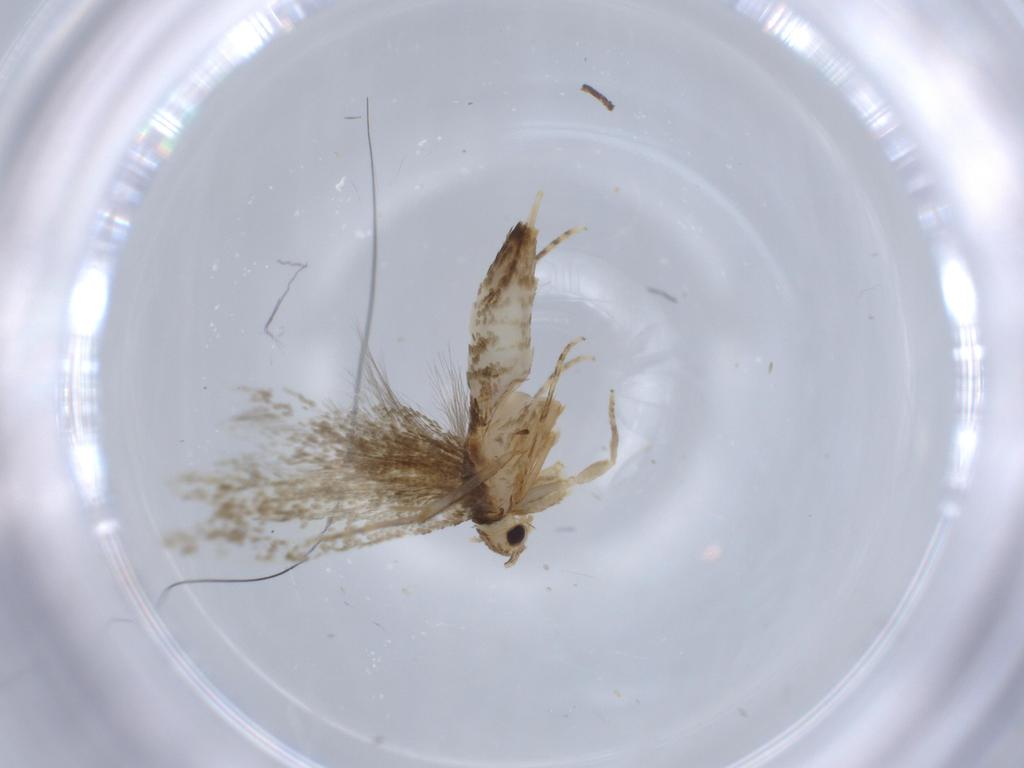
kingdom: Animalia
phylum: Arthropoda
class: Insecta
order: Lepidoptera
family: Tineidae
